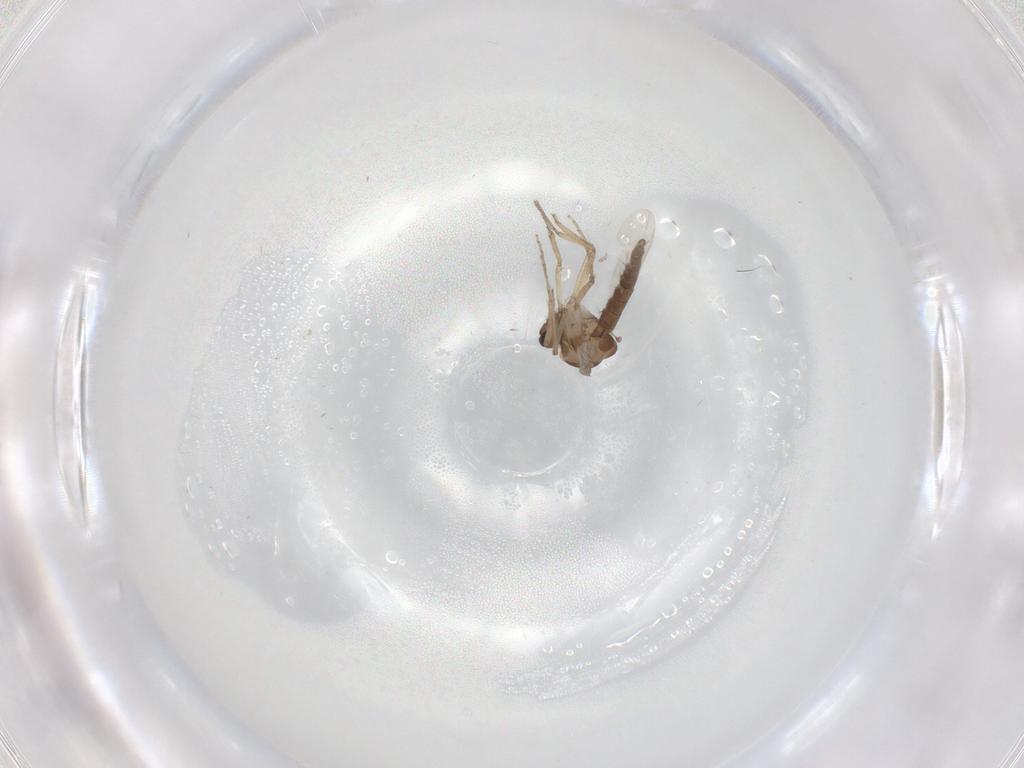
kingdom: Animalia
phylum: Arthropoda
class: Insecta
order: Diptera
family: Ceratopogonidae
